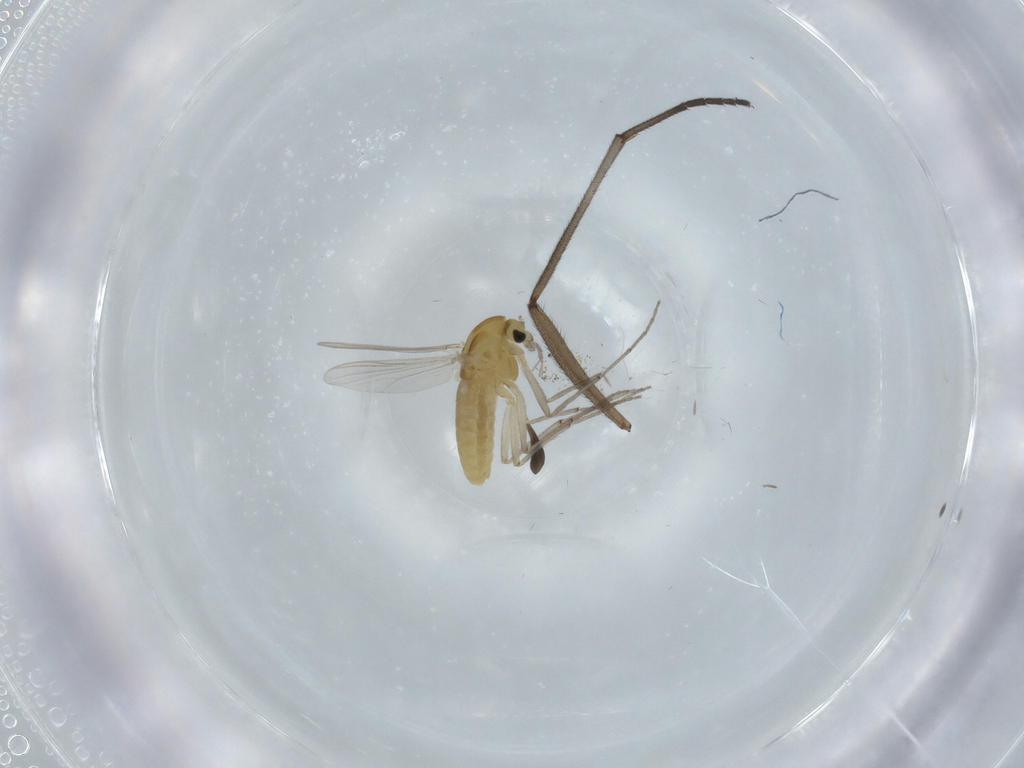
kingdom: Animalia
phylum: Arthropoda
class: Insecta
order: Diptera
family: Chironomidae
